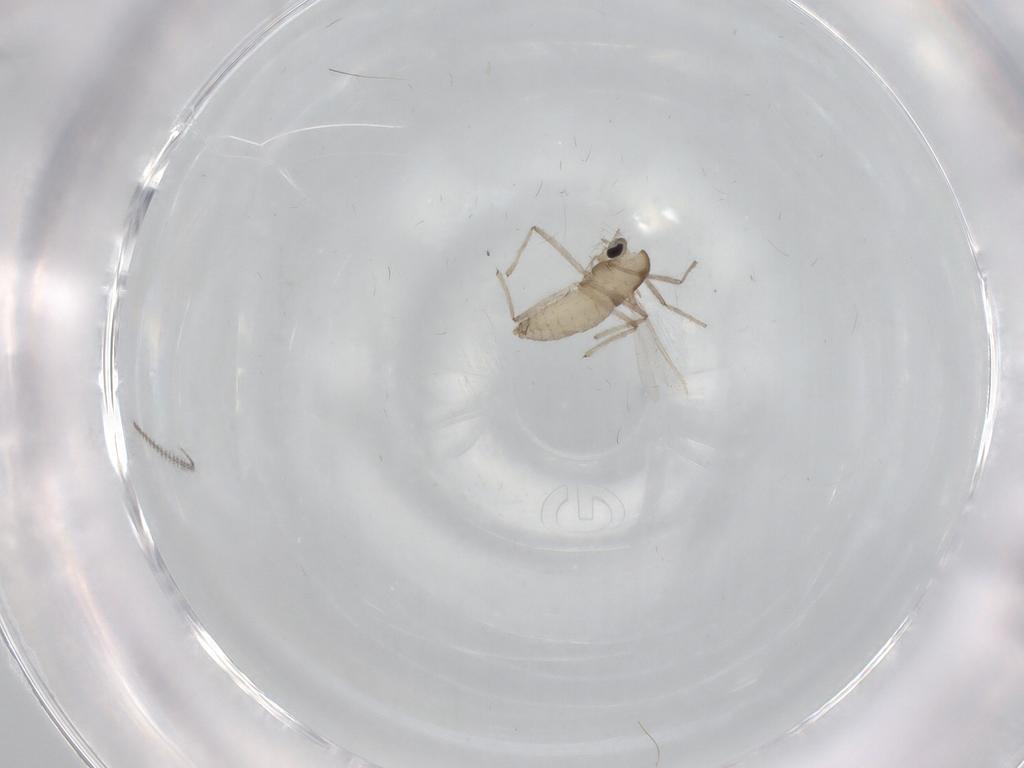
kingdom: Animalia
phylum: Arthropoda
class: Insecta
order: Diptera
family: Chironomidae
